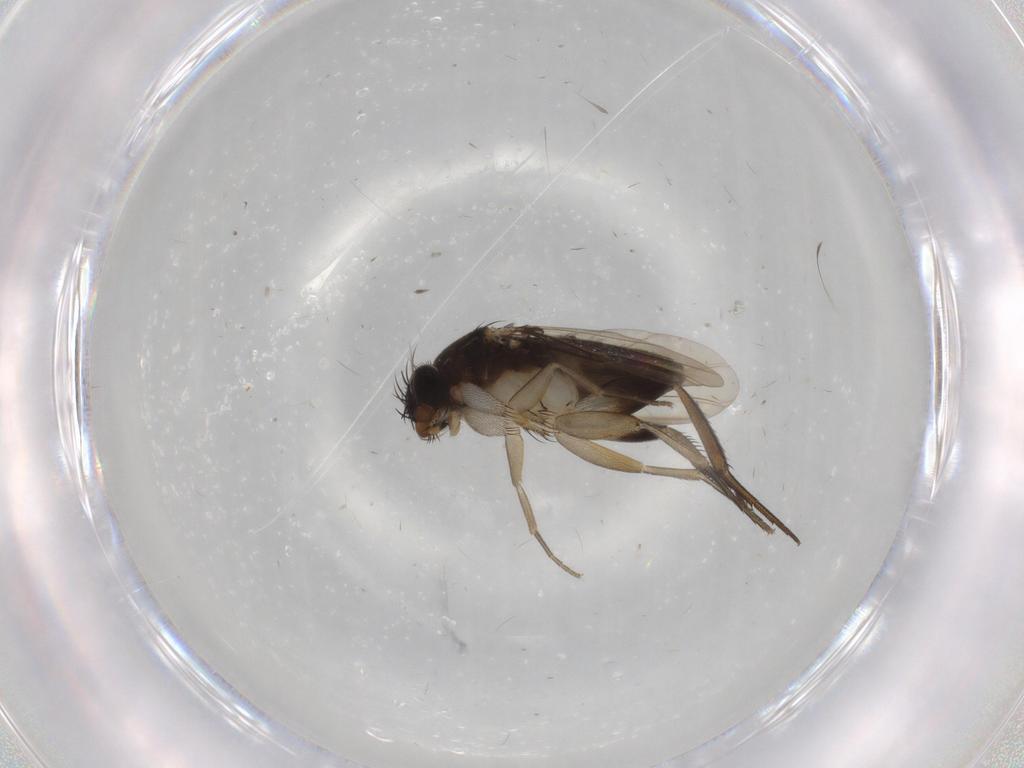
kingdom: Animalia
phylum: Arthropoda
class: Insecta
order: Diptera
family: Phoridae
